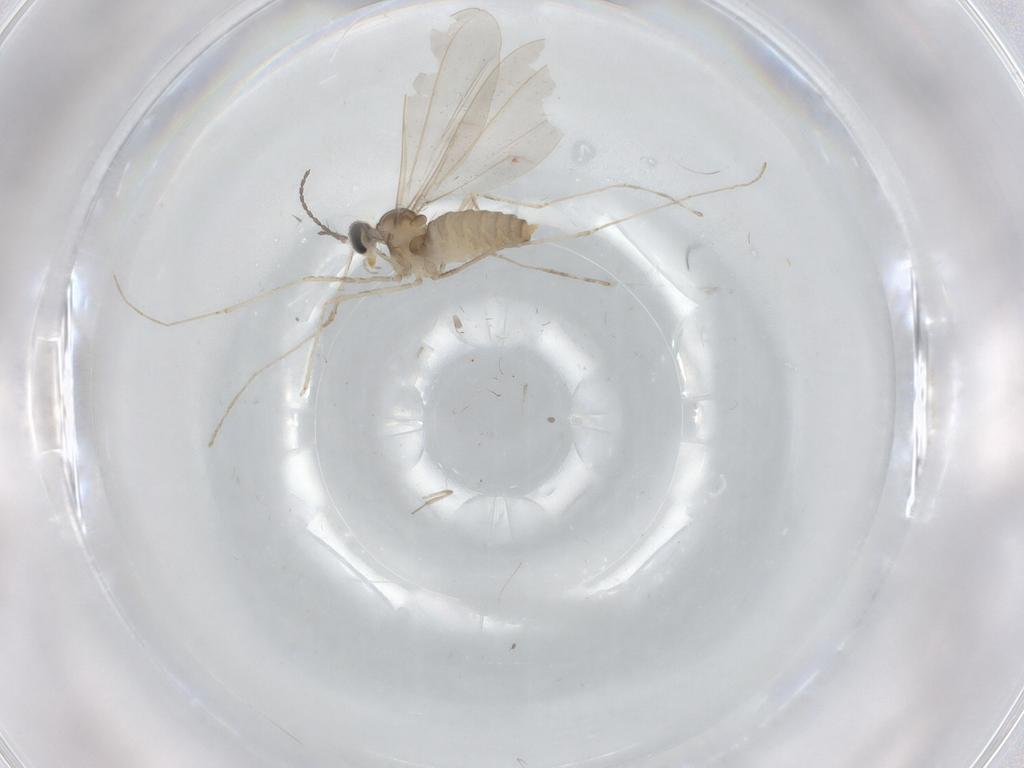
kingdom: Animalia
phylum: Arthropoda
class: Insecta
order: Diptera
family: Cecidomyiidae
